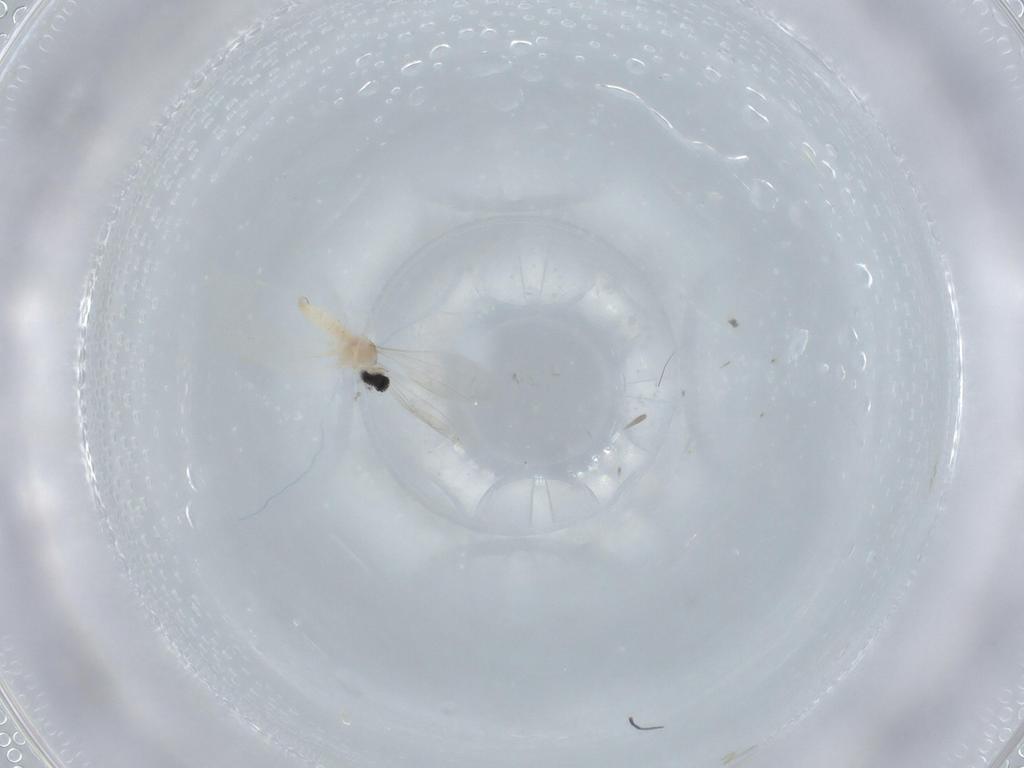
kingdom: Animalia
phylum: Arthropoda
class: Insecta
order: Diptera
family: Cecidomyiidae
